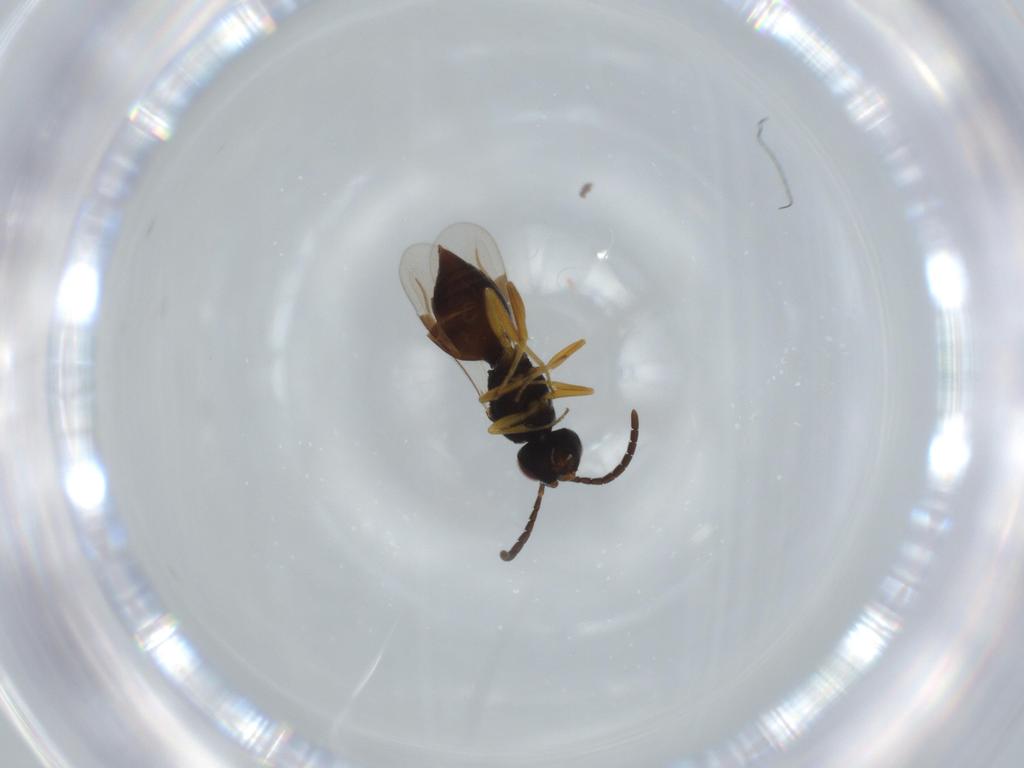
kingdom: Animalia
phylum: Arthropoda
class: Insecta
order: Hymenoptera
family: Megaspilidae
